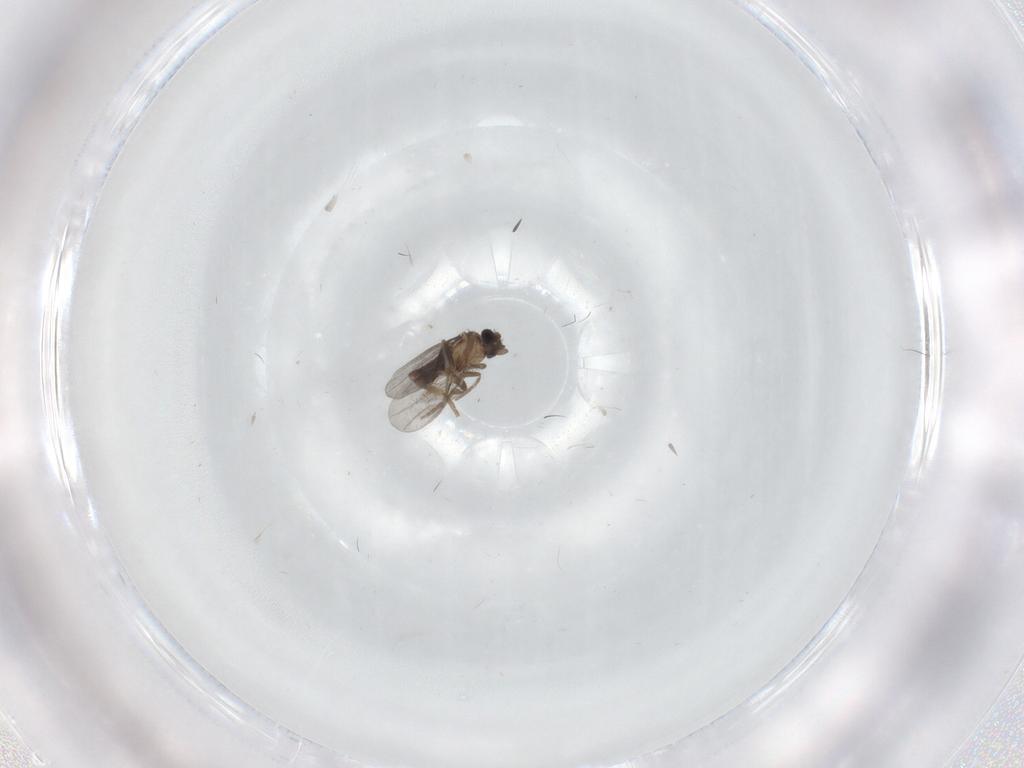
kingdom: Animalia
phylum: Arthropoda
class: Insecta
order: Diptera
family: Sciaridae
